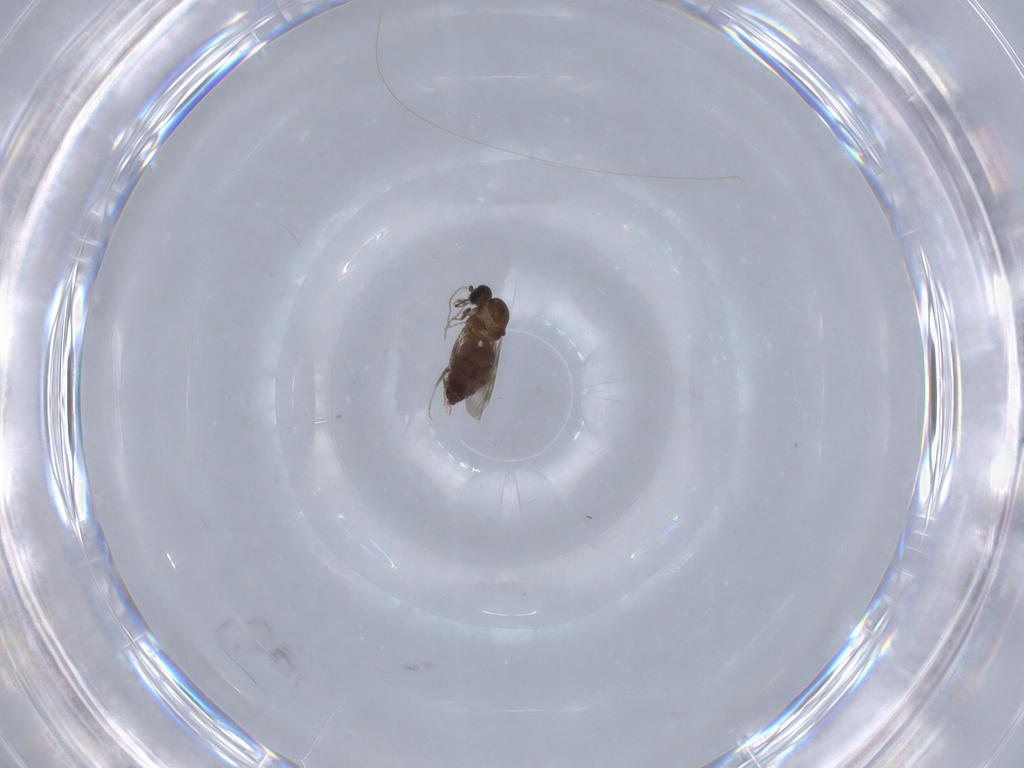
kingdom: Animalia
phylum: Arthropoda
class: Insecta
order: Diptera
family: Ceratopogonidae
